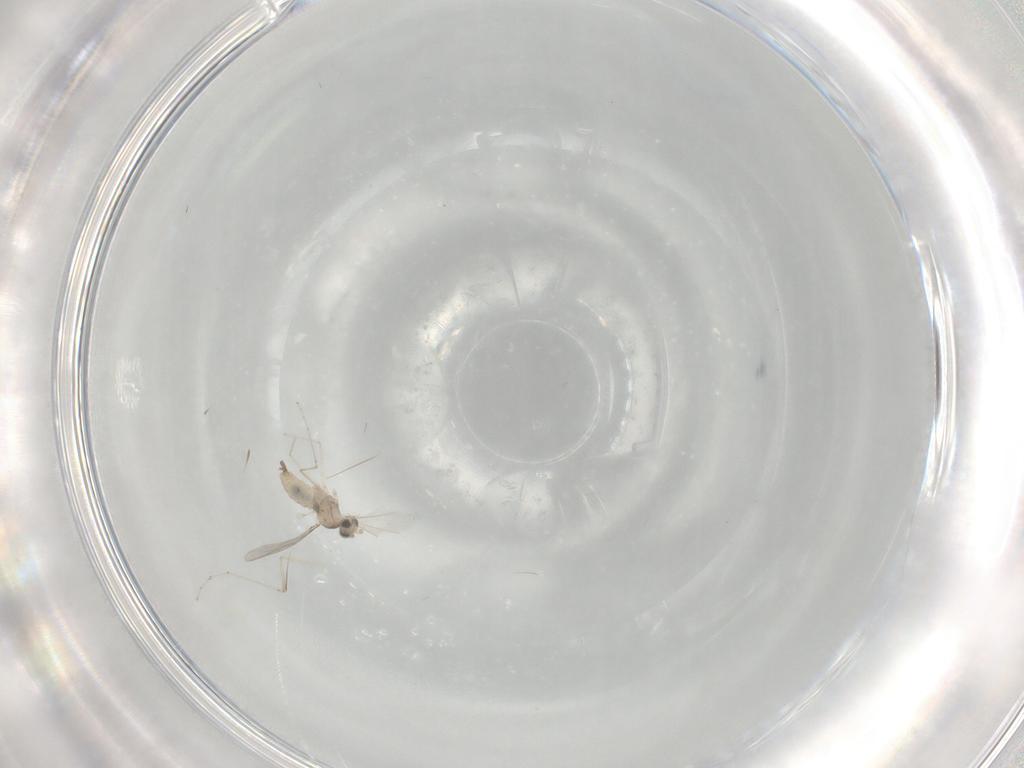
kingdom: Animalia
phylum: Arthropoda
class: Insecta
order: Diptera
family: Cecidomyiidae
